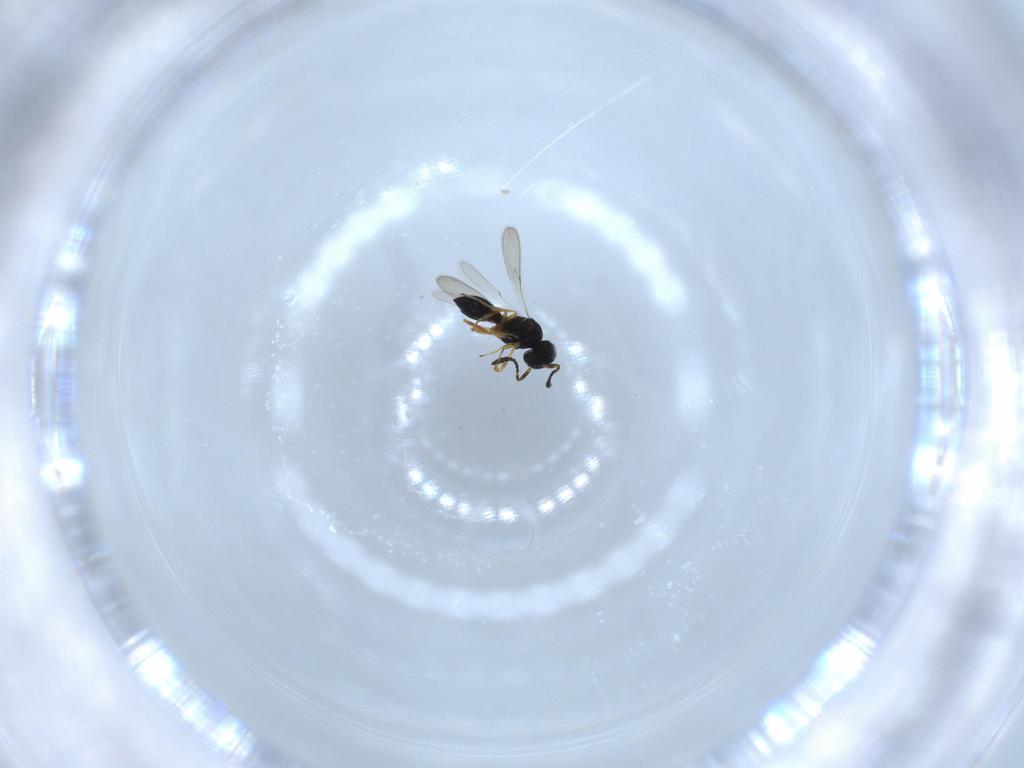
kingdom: Animalia
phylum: Arthropoda
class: Insecta
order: Hymenoptera
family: Scelionidae
